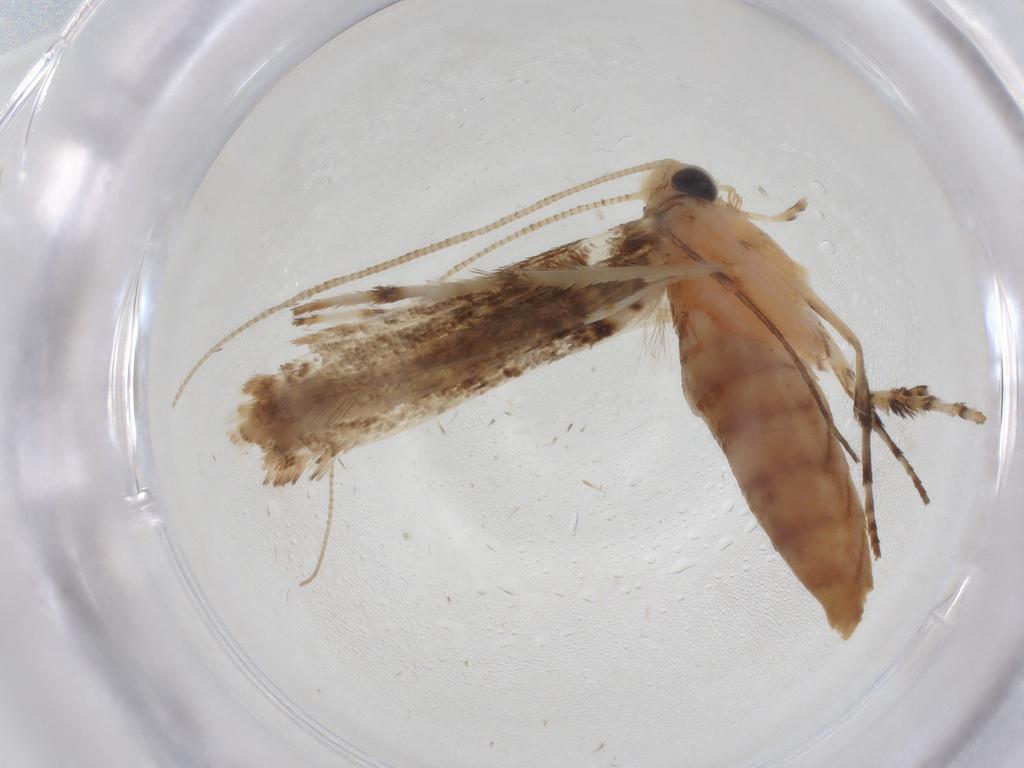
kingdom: Animalia
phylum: Arthropoda
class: Insecta
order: Lepidoptera
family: Gracillariidae
